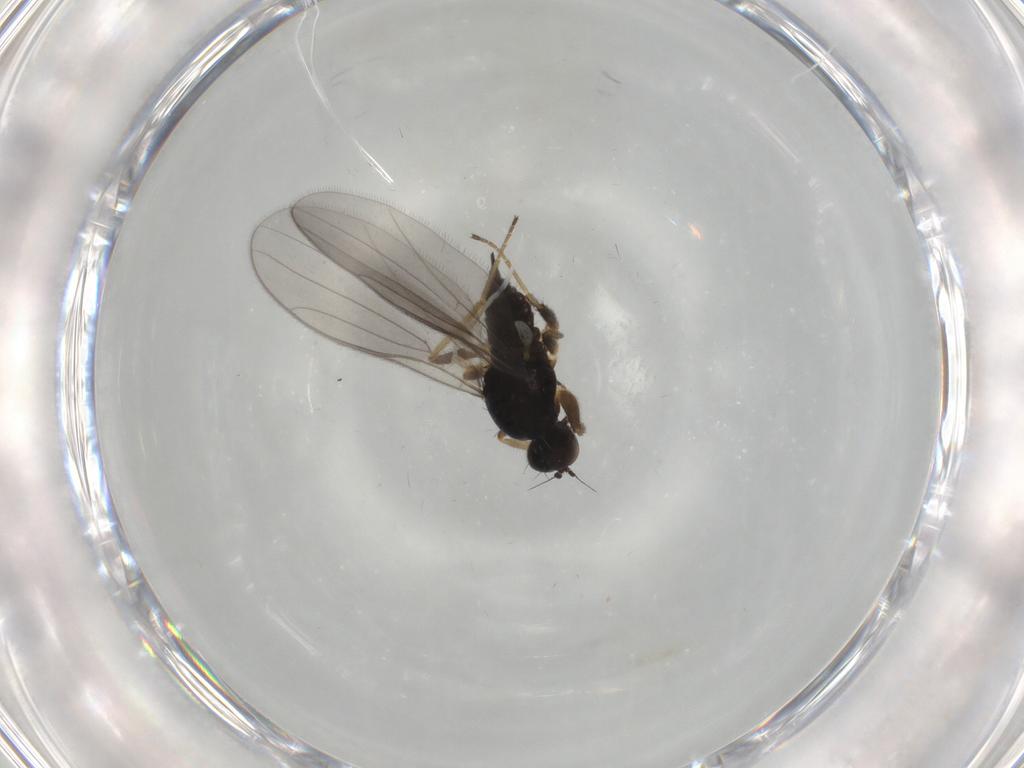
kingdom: Animalia
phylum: Arthropoda
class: Insecta
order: Diptera
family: Hybotidae
